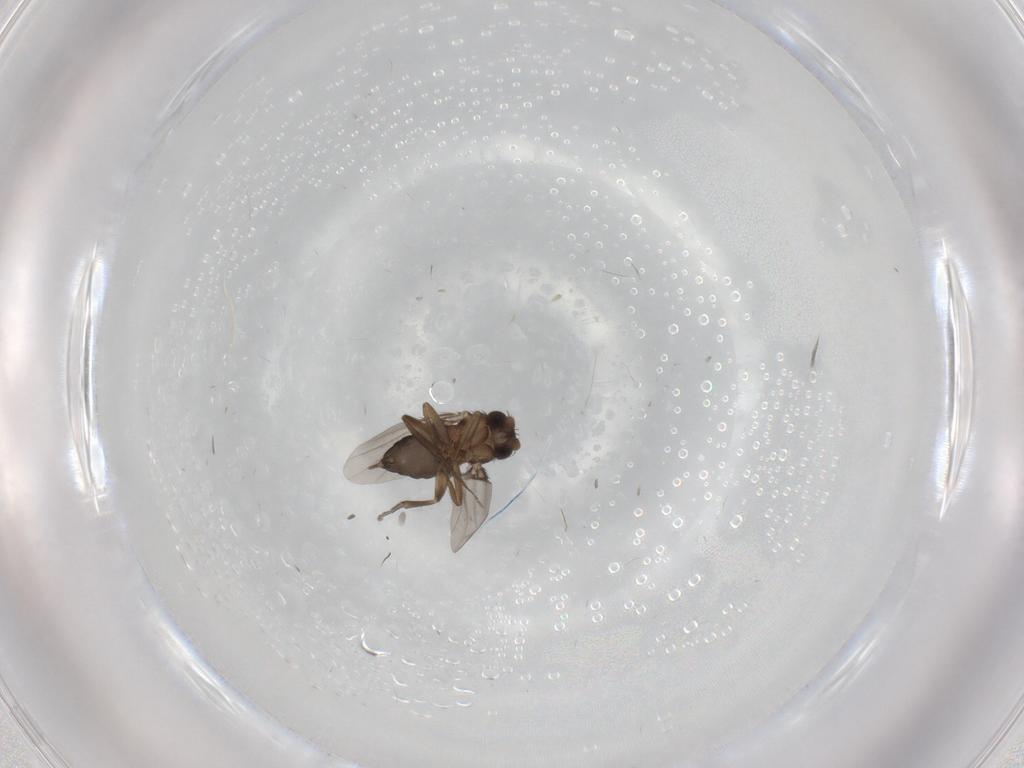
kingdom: Animalia
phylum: Arthropoda
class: Insecta
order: Diptera
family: Phoridae
